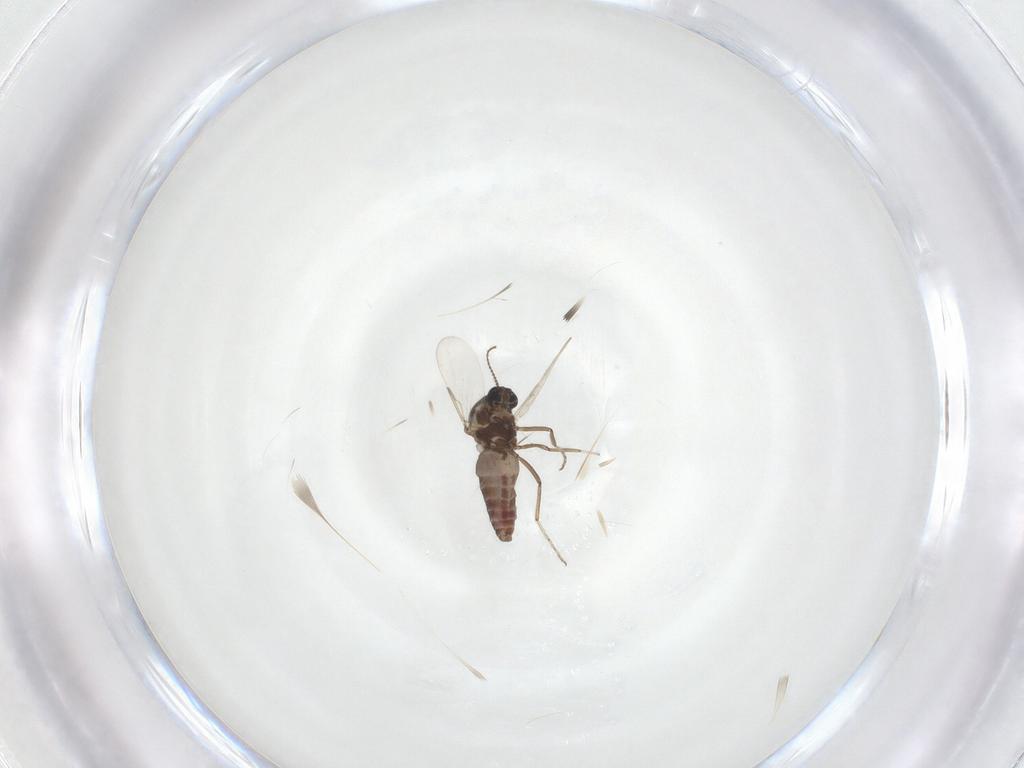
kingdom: Animalia
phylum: Arthropoda
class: Insecta
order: Diptera
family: Ceratopogonidae
